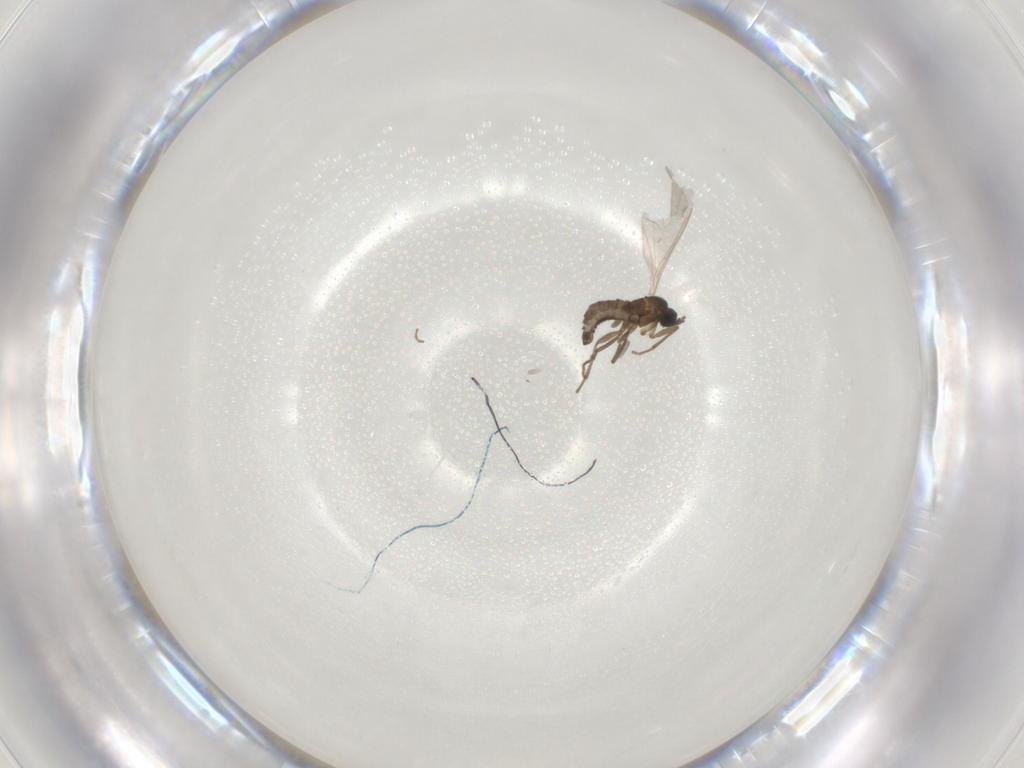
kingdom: Animalia
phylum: Arthropoda
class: Insecta
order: Diptera
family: Sciaridae
